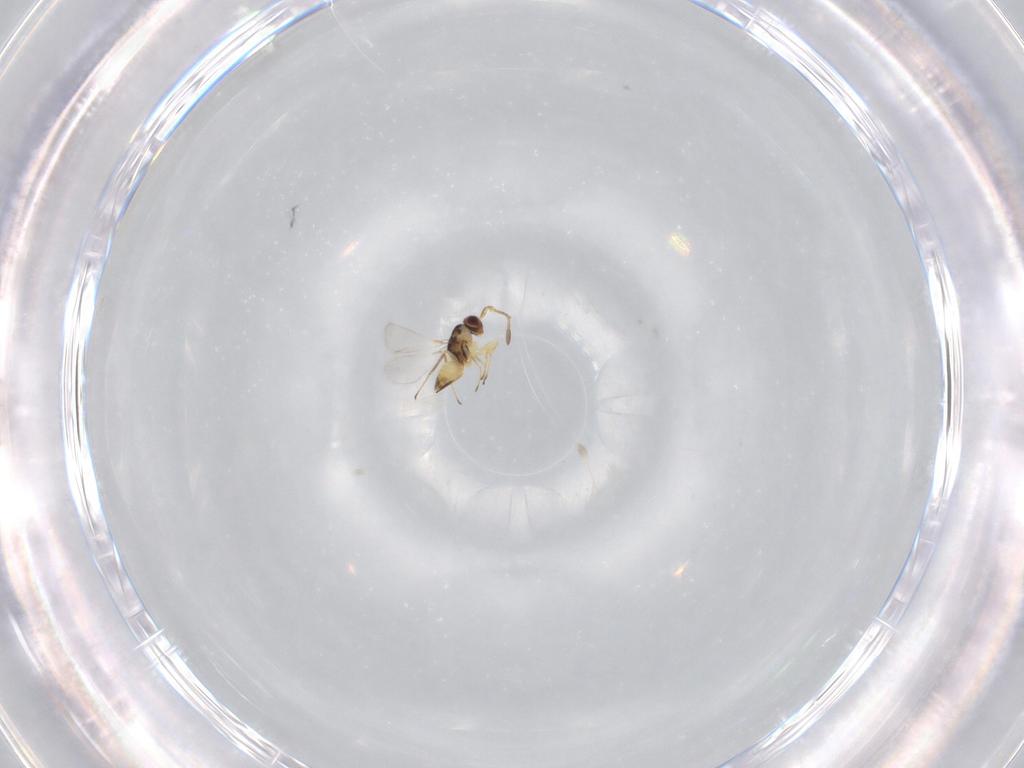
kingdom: Animalia
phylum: Arthropoda
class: Insecta
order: Hymenoptera
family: Mymaridae
